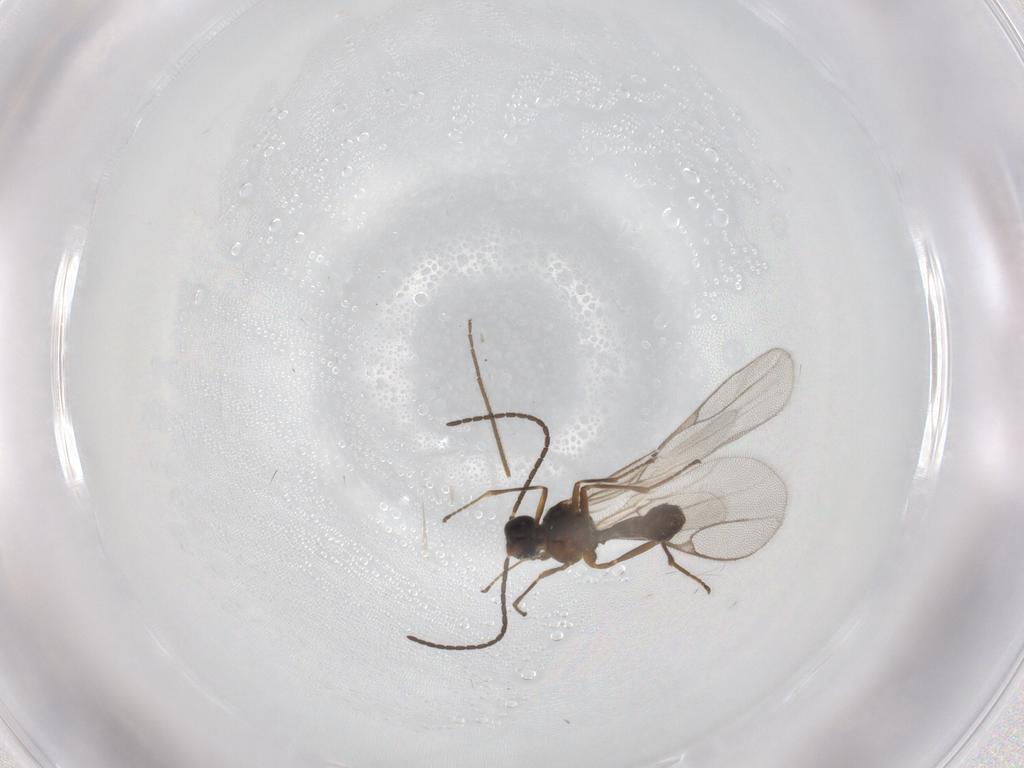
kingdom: Animalia
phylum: Arthropoda
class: Insecta
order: Hymenoptera
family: Braconidae
